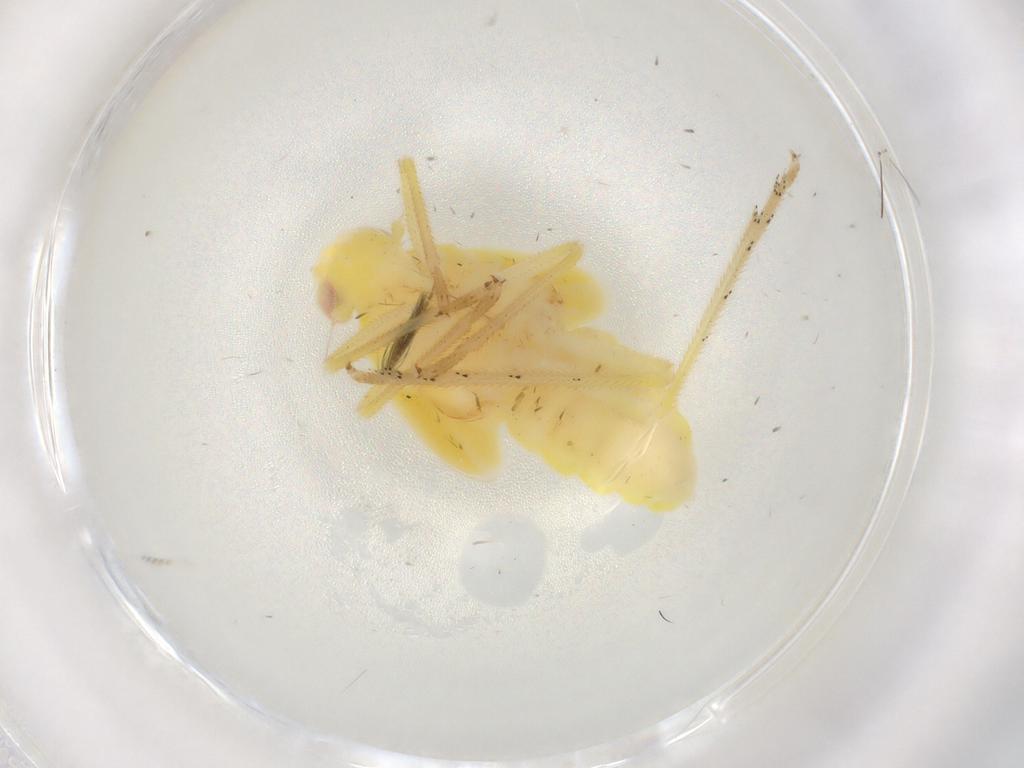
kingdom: Animalia
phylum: Arthropoda
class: Insecta
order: Hemiptera
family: Tropiduchidae
